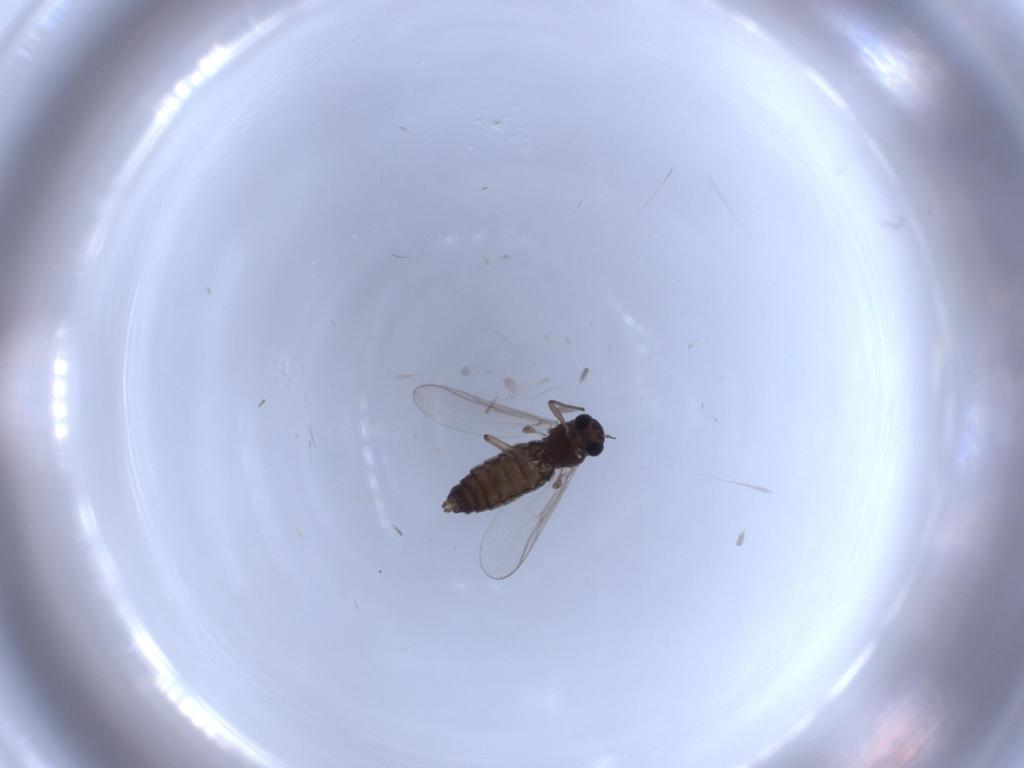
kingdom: Animalia
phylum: Arthropoda
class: Insecta
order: Diptera
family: Chironomidae
